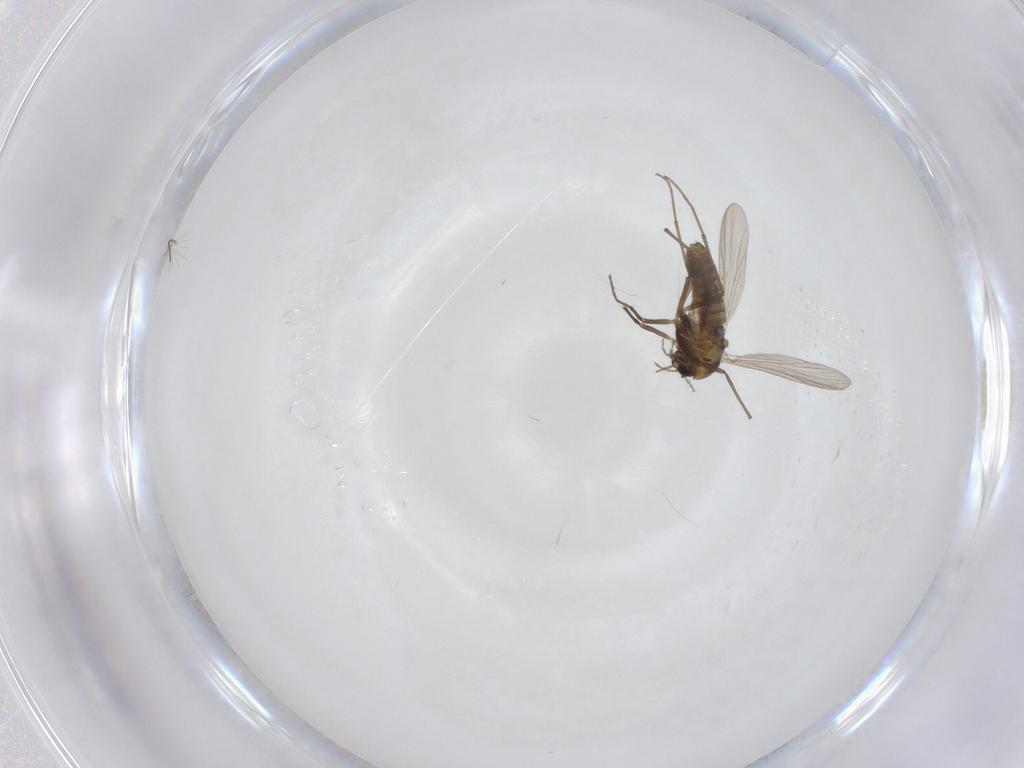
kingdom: Animalia
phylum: Arthropoda
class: Insecta
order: Diptera
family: Chironomidae
